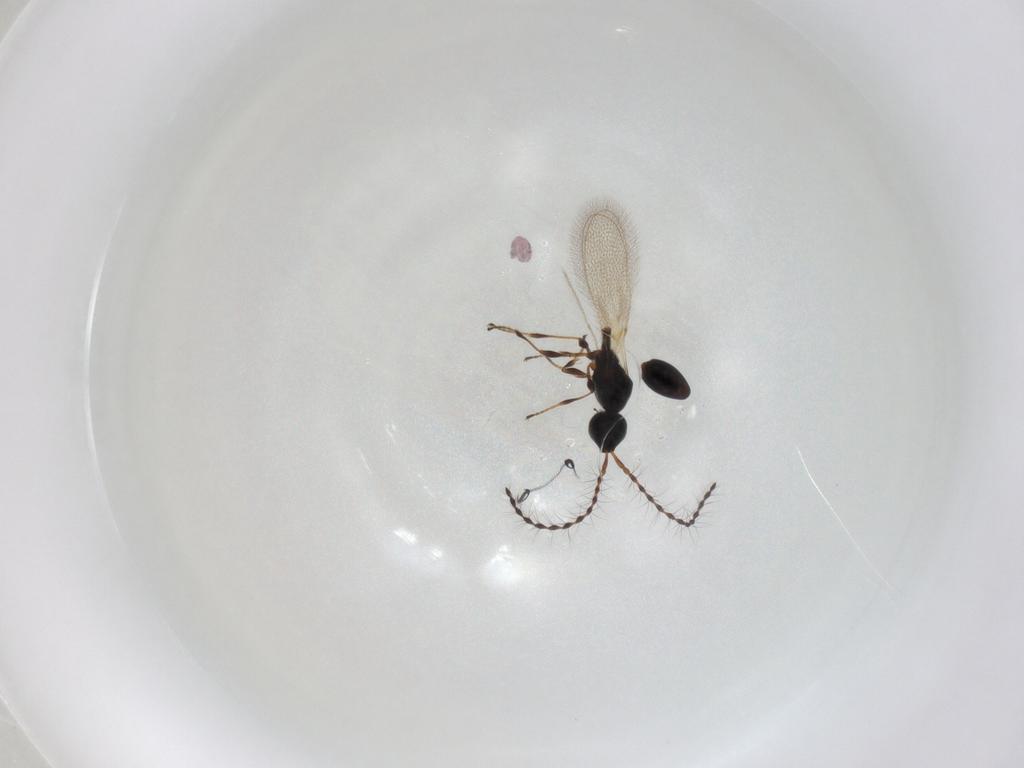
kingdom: Animalia
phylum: Arthropoda
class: Insecta
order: Hymenoptera
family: Diapriidae
